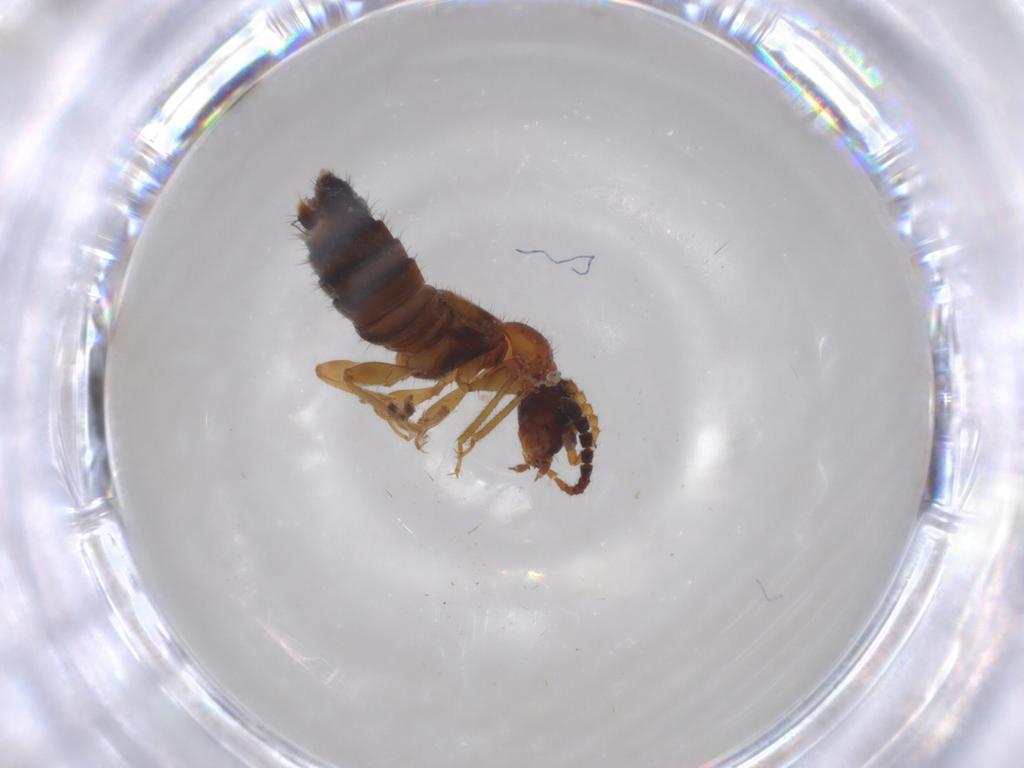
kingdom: Animalia
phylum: Arthropoda
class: Insecta
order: Coleoptera
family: Staphylinidae
